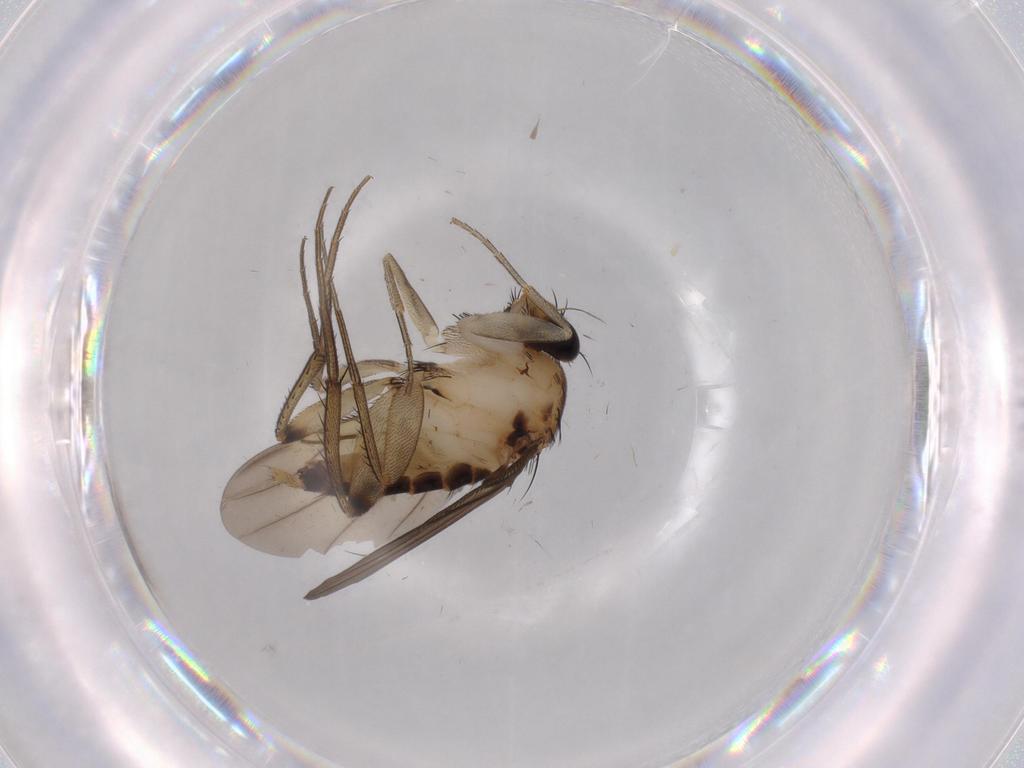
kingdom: Animalia
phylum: Arthropoda
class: Insecta
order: Diptera
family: Phoridae
